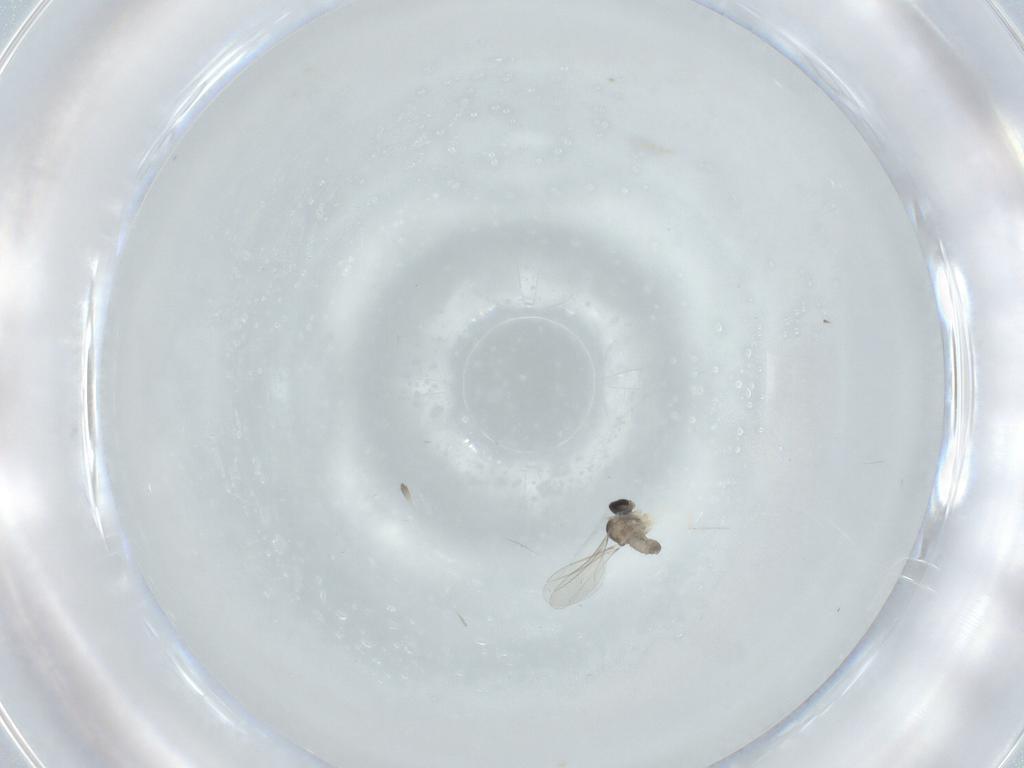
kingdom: Animalia
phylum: Arthropoda
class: Insecta
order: Diptera
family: Cecidomyiidae
